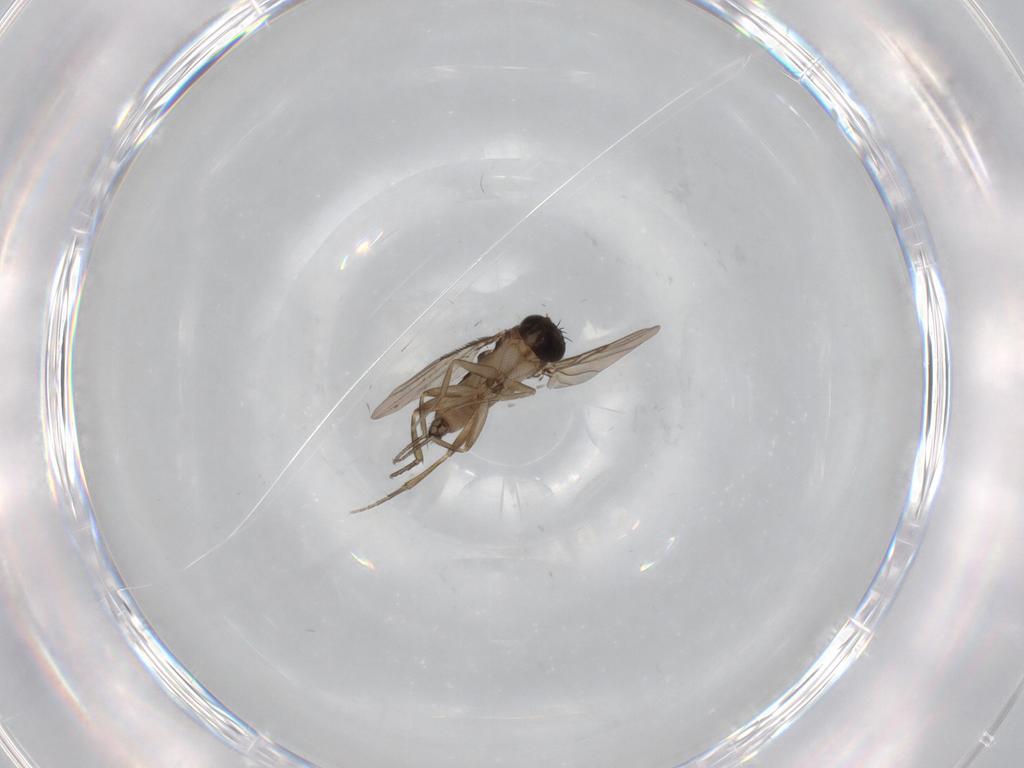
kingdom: Animalia
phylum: Arthropoda
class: Insecta
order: Diptera
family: Phoridae
